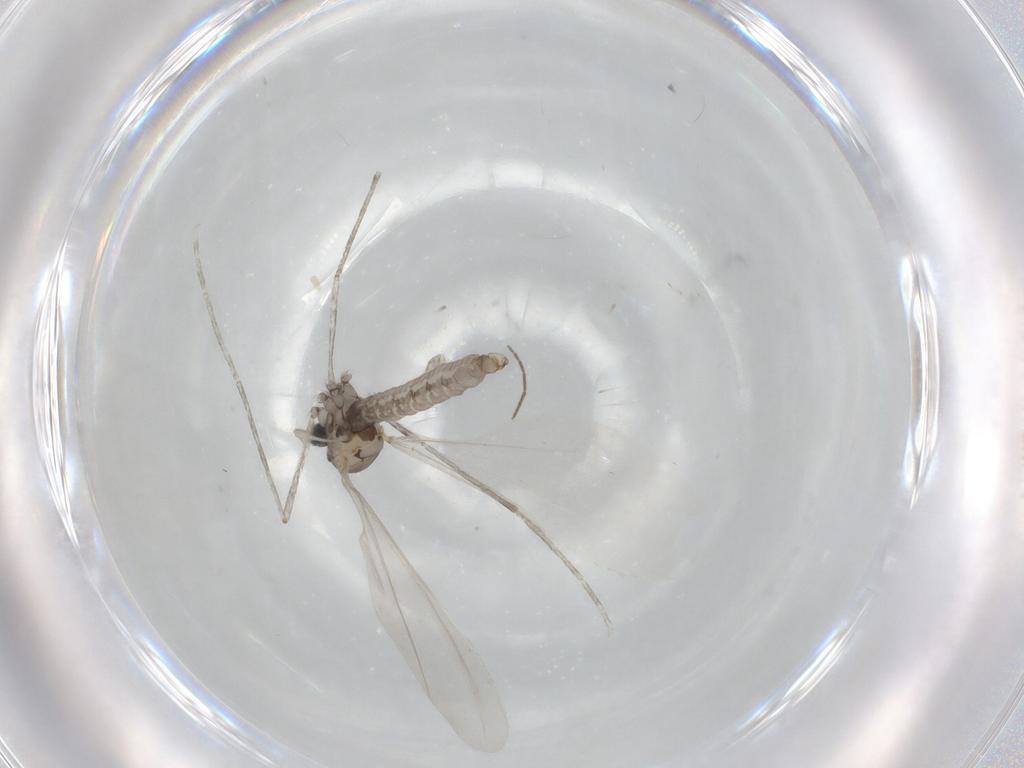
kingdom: Animalia
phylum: Arthropoda
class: Insecta
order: Diptera
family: Cecidomyiidae
